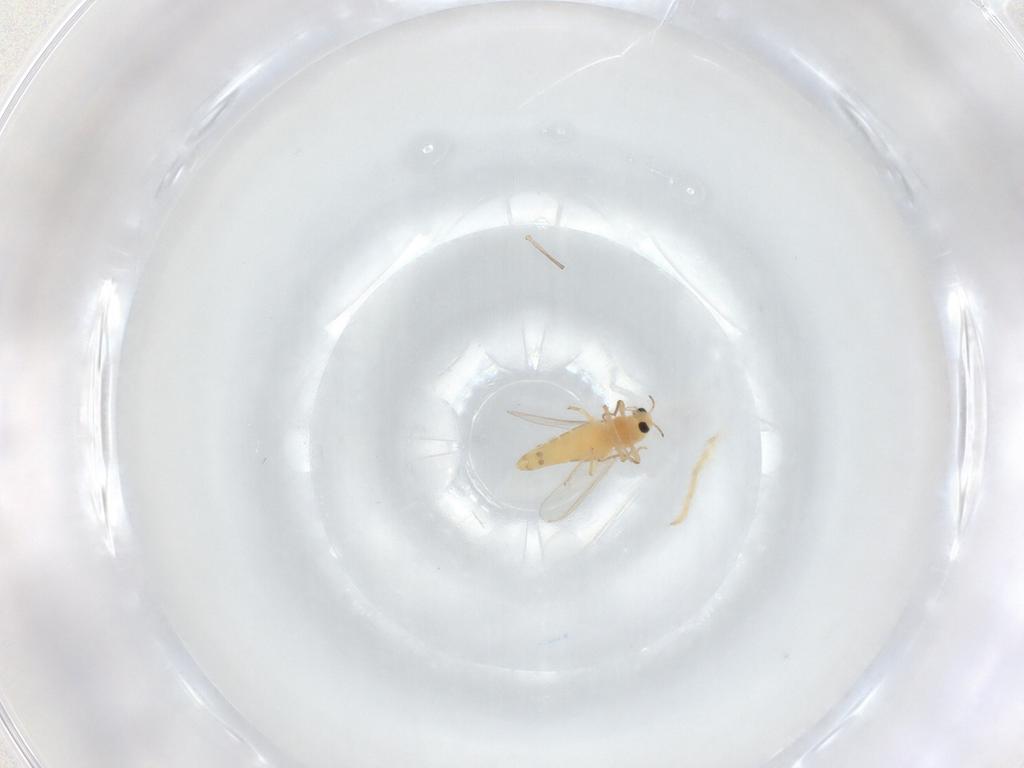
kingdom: Animalia
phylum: Arthropoda
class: Insecta
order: Diptera
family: Chironomidae
